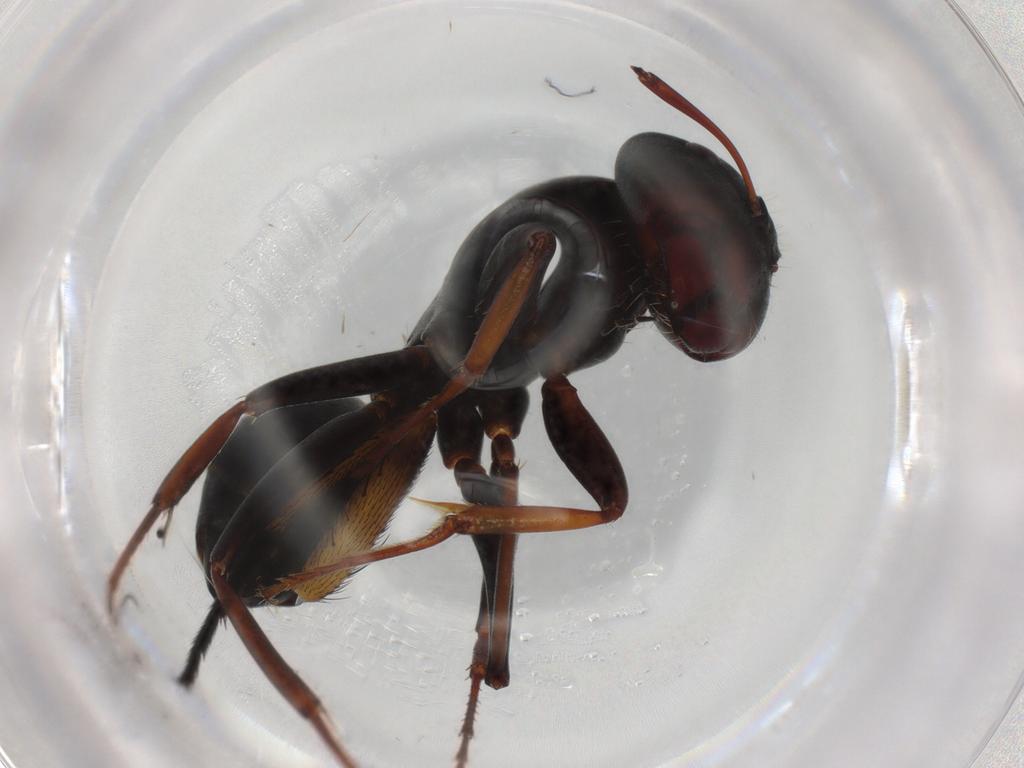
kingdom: Animalia
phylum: Arthropoda
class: Insecta
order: Hymenoptera
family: Formicidae
